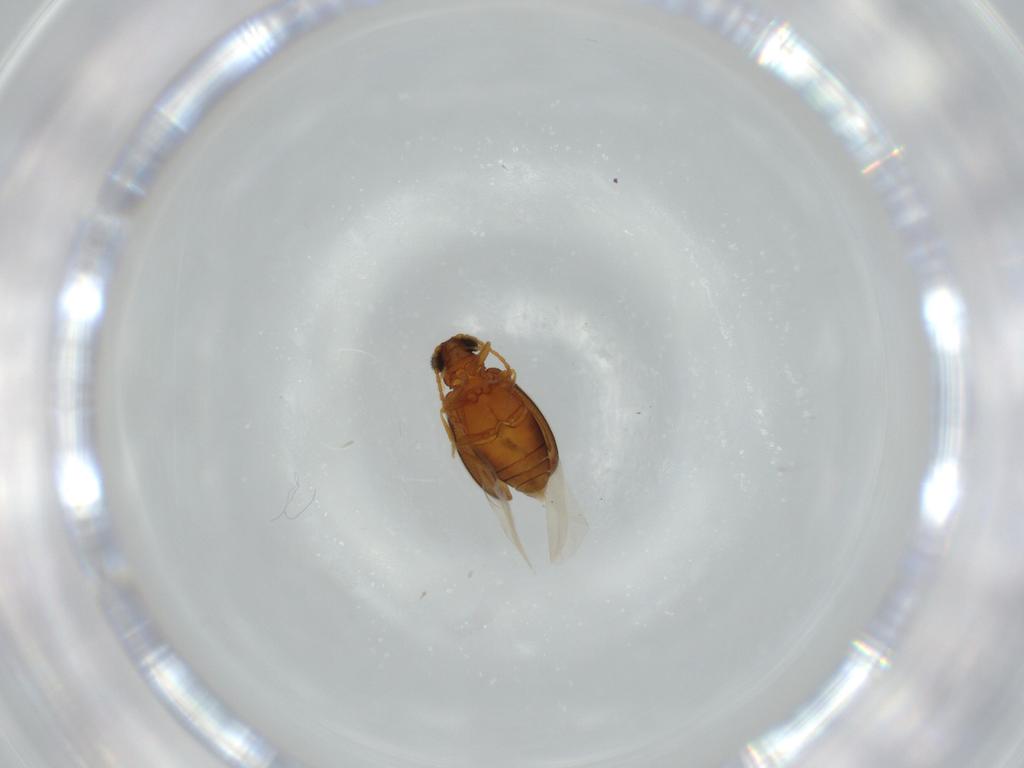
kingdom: Animalia
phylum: Arthropoda
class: Insecta
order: Coleoptera
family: Aderidae
